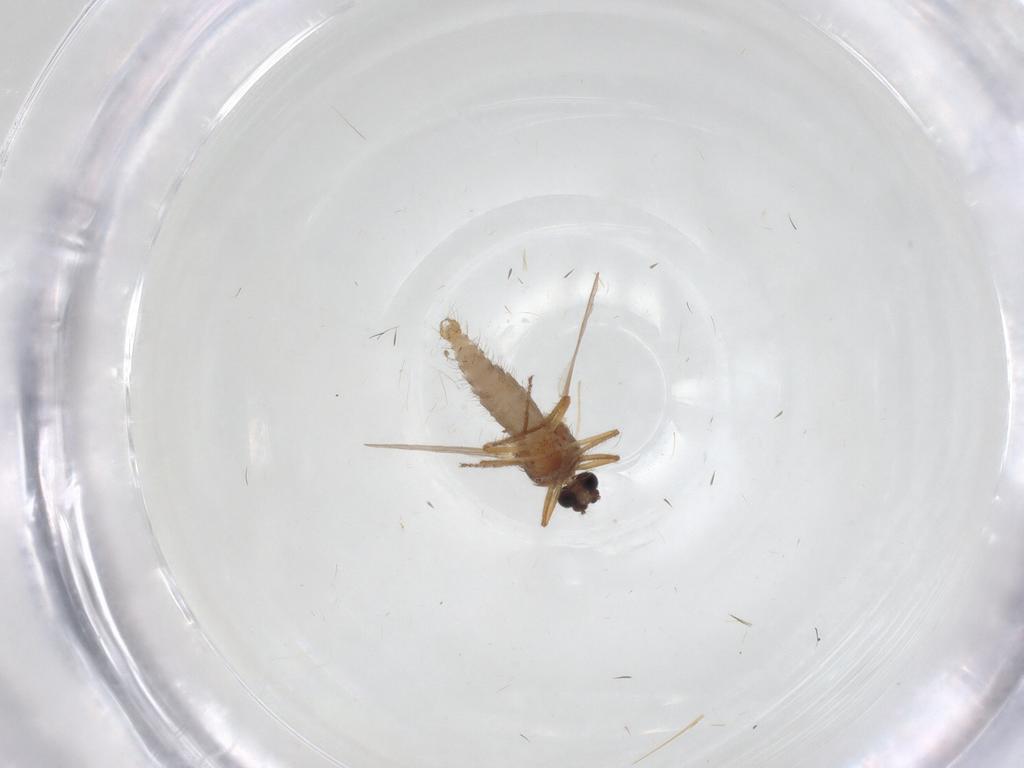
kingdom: Animalia
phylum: Arthropoda
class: Insecta
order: Diptera
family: Ceratopogonidae
